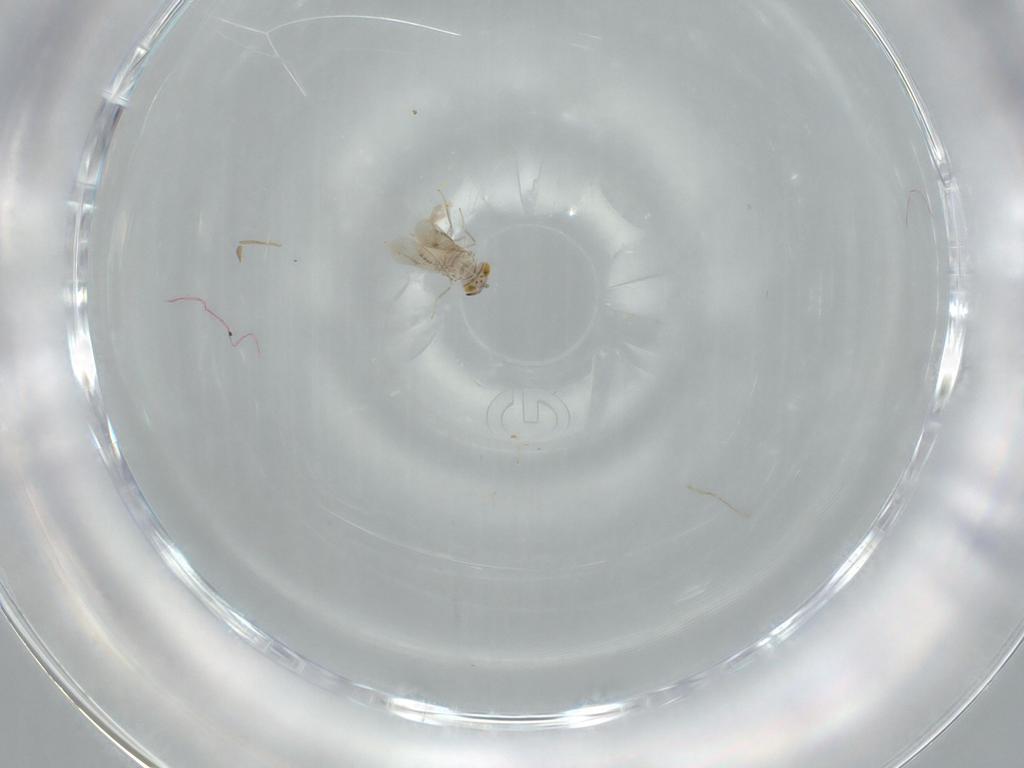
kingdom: Animalia
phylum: Arthropoda
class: Insecta
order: Hymenoptera
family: Aphelinidae
